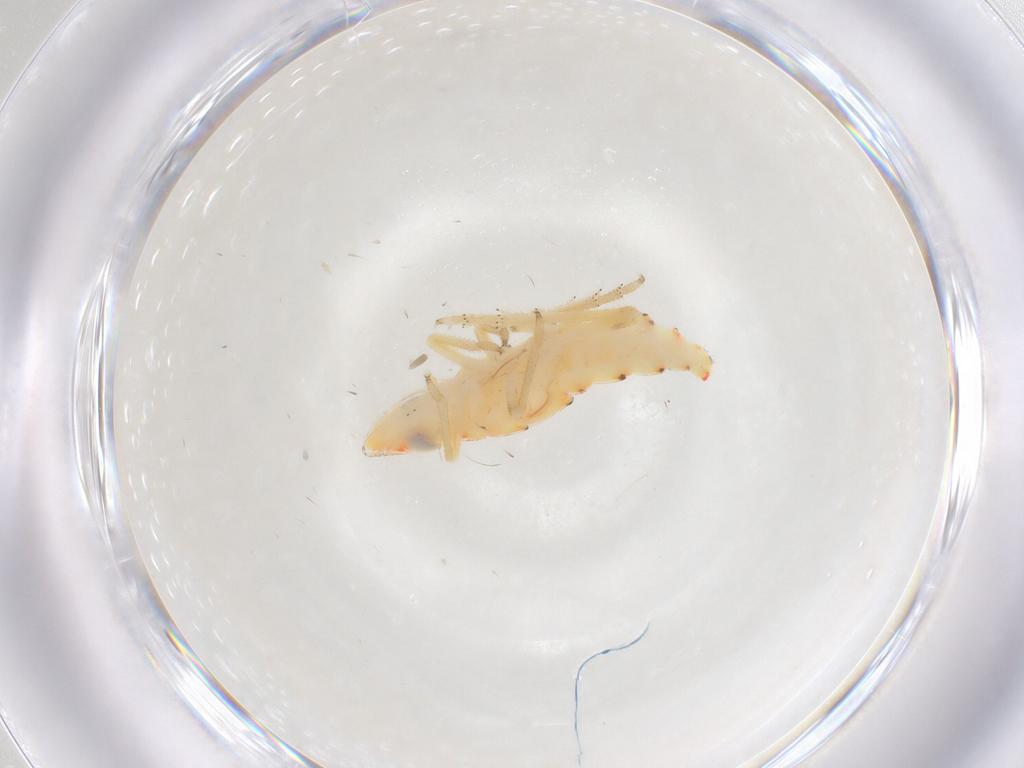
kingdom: Animalia
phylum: Arthropoda
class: Insecta
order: Hemiptera
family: Tropiduchidae
